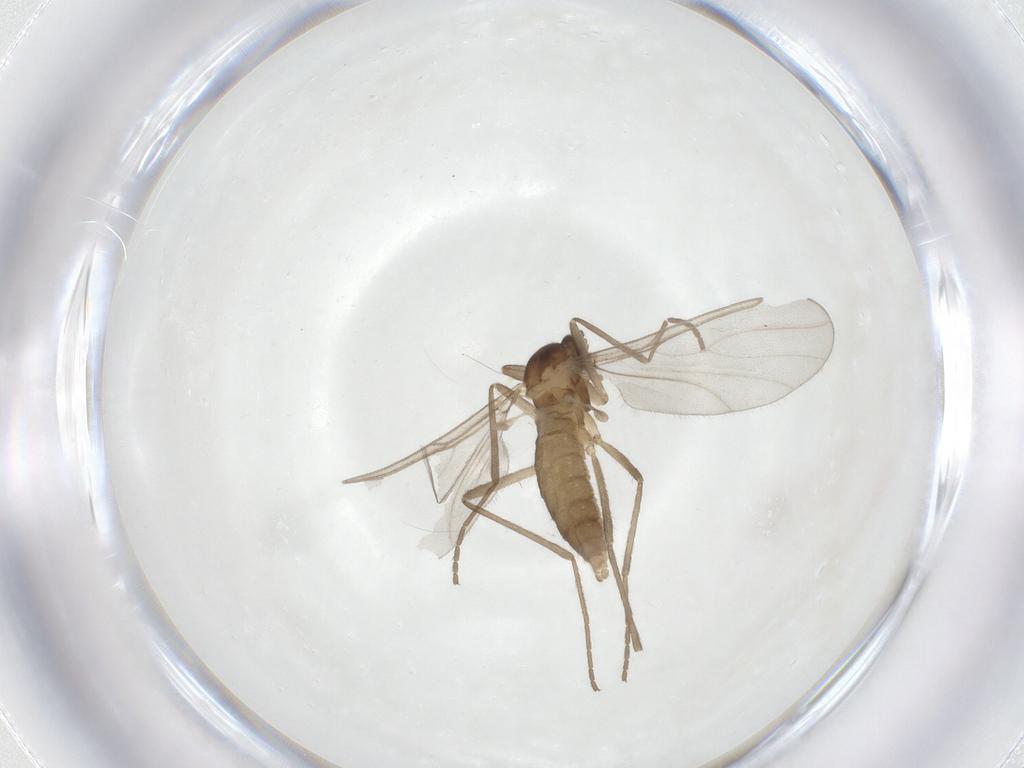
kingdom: Animalia
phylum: Arthropoda
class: Insecta
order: Diptera
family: Cecidomyiidae
